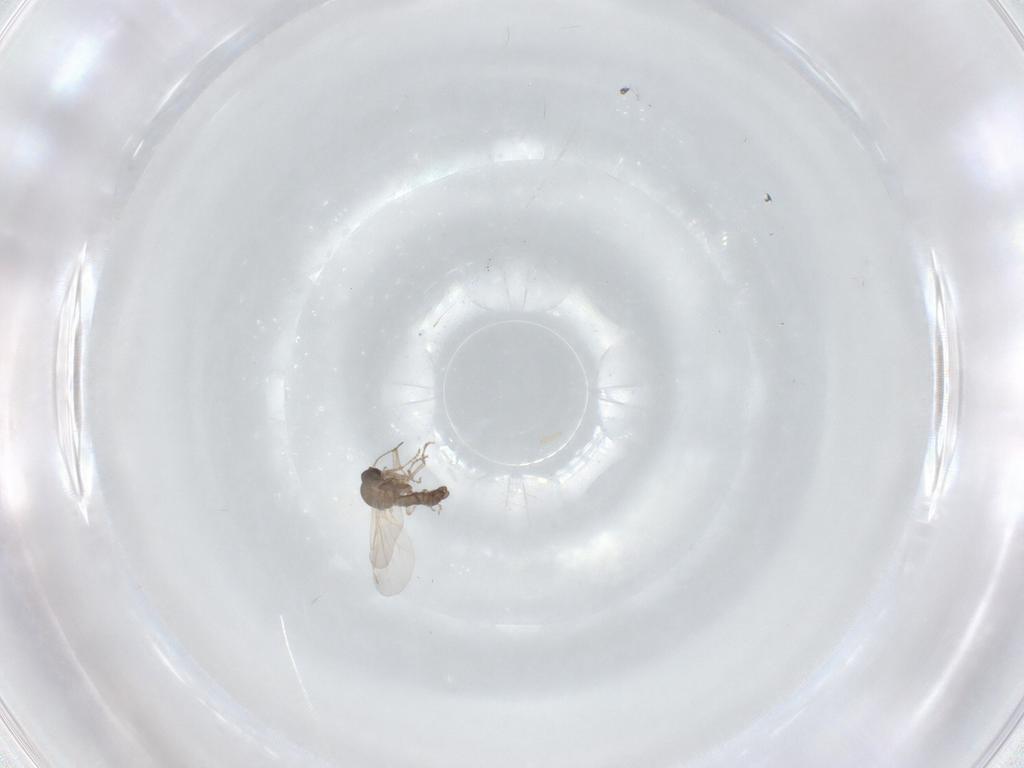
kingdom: Animalia
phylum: Arthropoda
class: Insecta
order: Diptera
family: Ceratopogonidae
